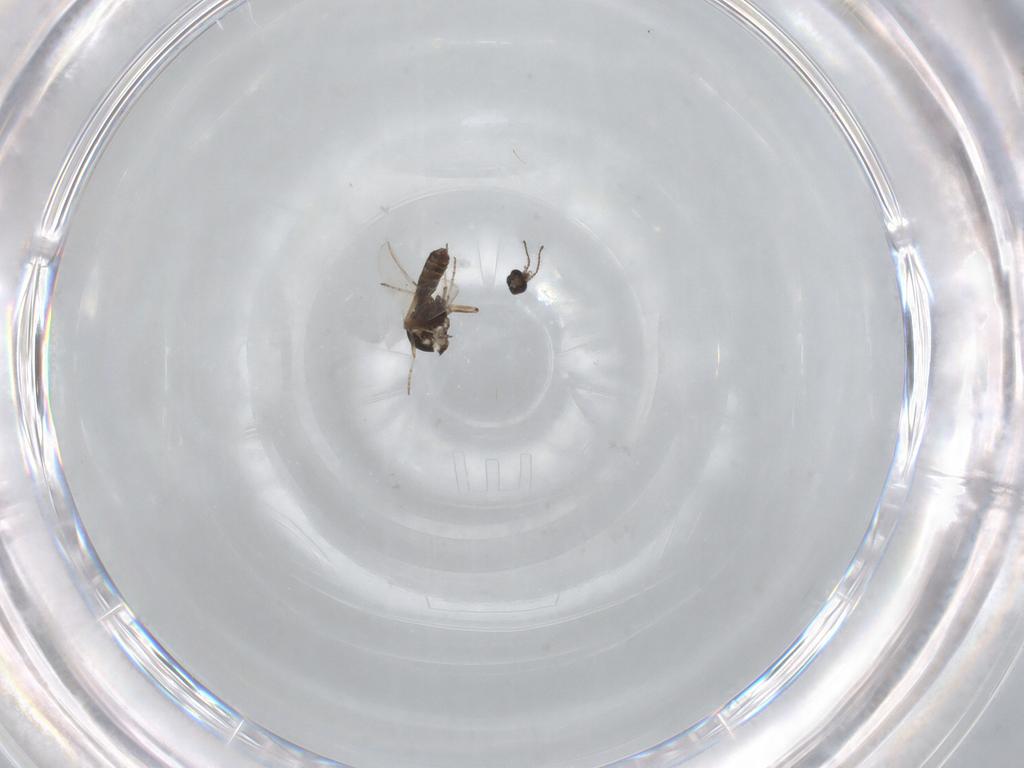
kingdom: Animalia
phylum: Arthropoda
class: Insecta
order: Diptera
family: Ceratopogonidae
